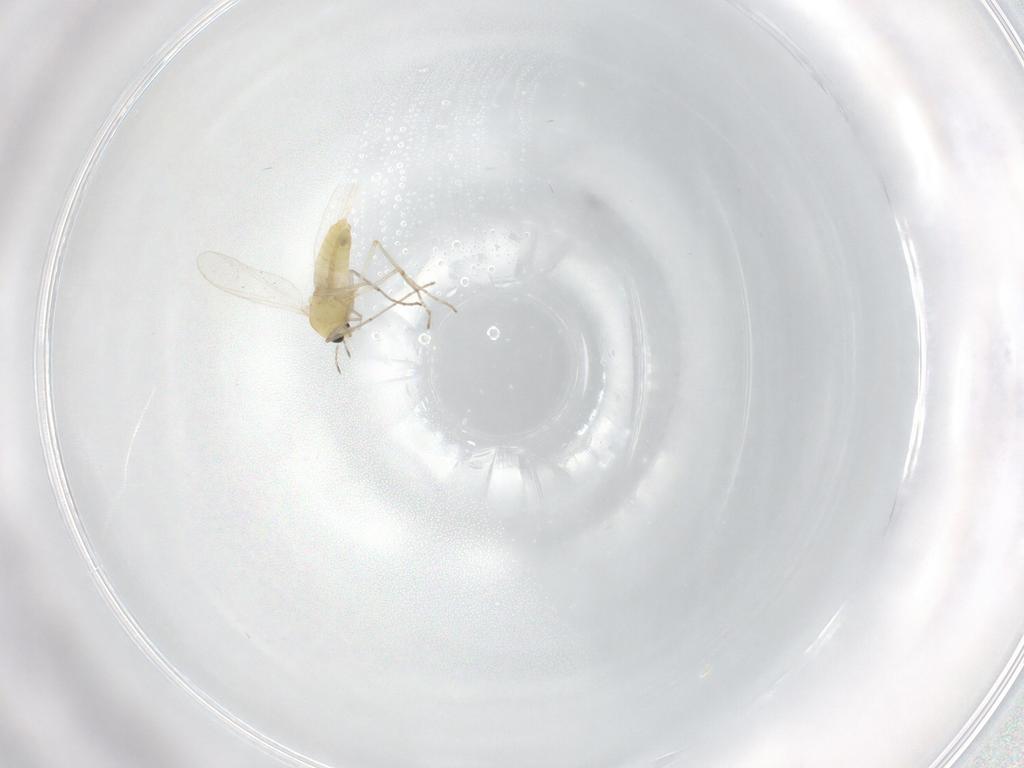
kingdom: Animalia
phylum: Arthropoda
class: Insecta
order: Diptera
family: Chironomidae
